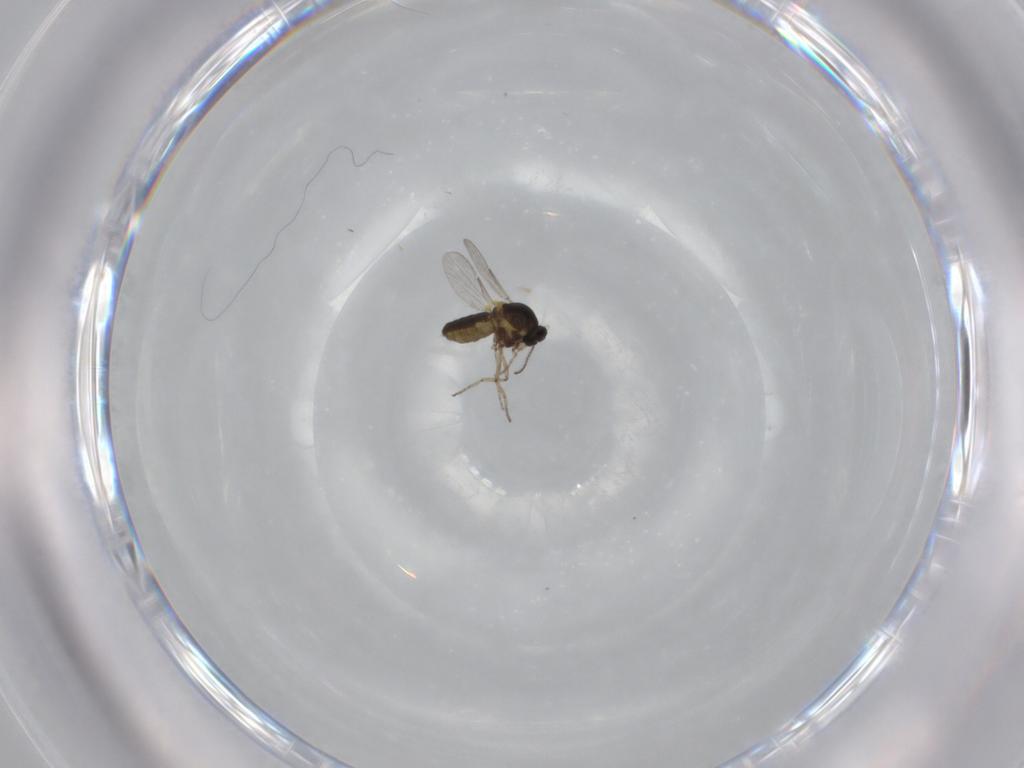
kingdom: Animalia
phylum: Arthropoda
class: Insecta
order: Diptera
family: Ceratopogonidae
